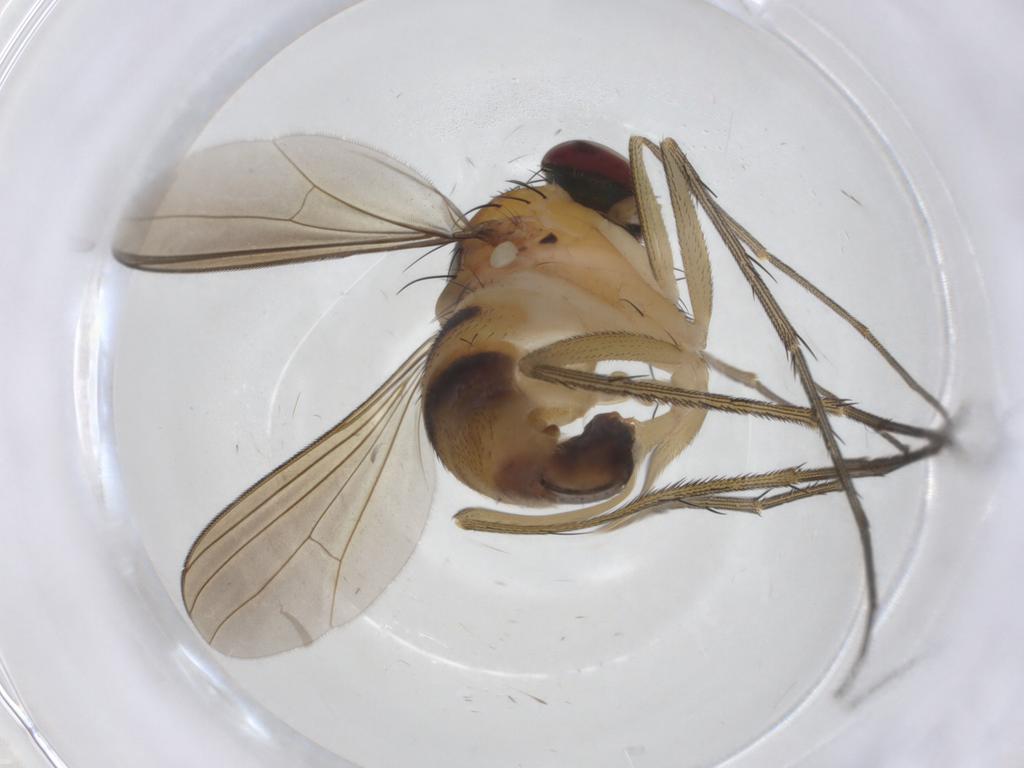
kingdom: Animalia
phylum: Arthropoda
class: Insecta
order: Diptera
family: Dolichopodidae
